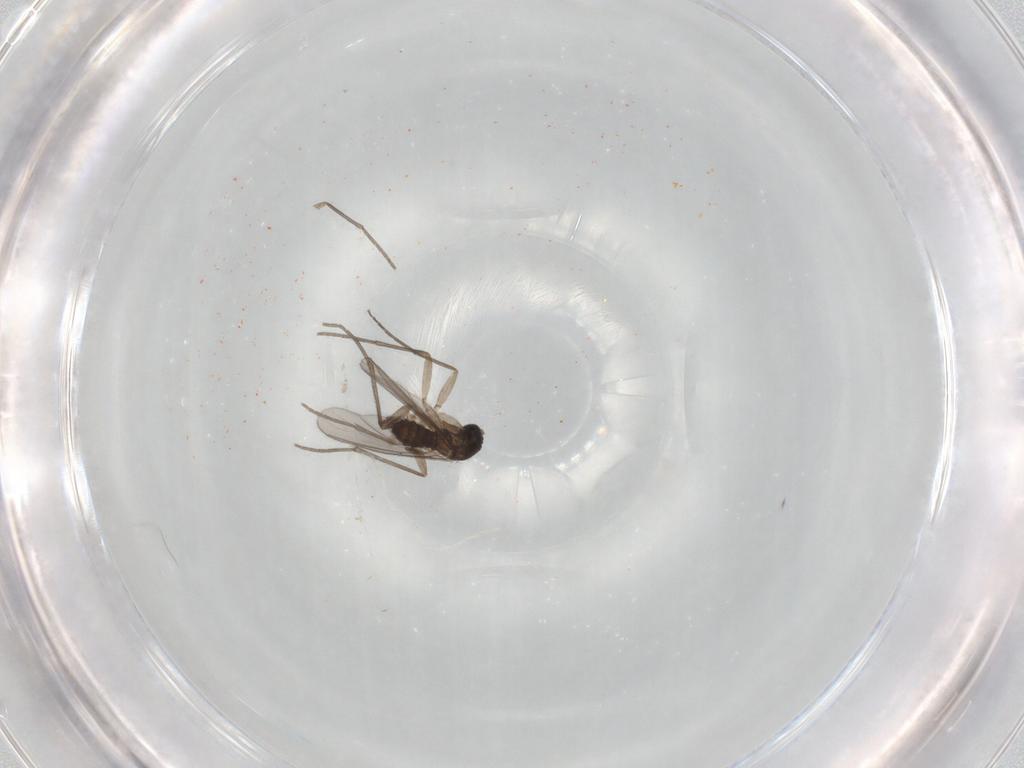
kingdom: Animalia
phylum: Arthropoda
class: Insecta
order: Diptera
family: Sciaridae
